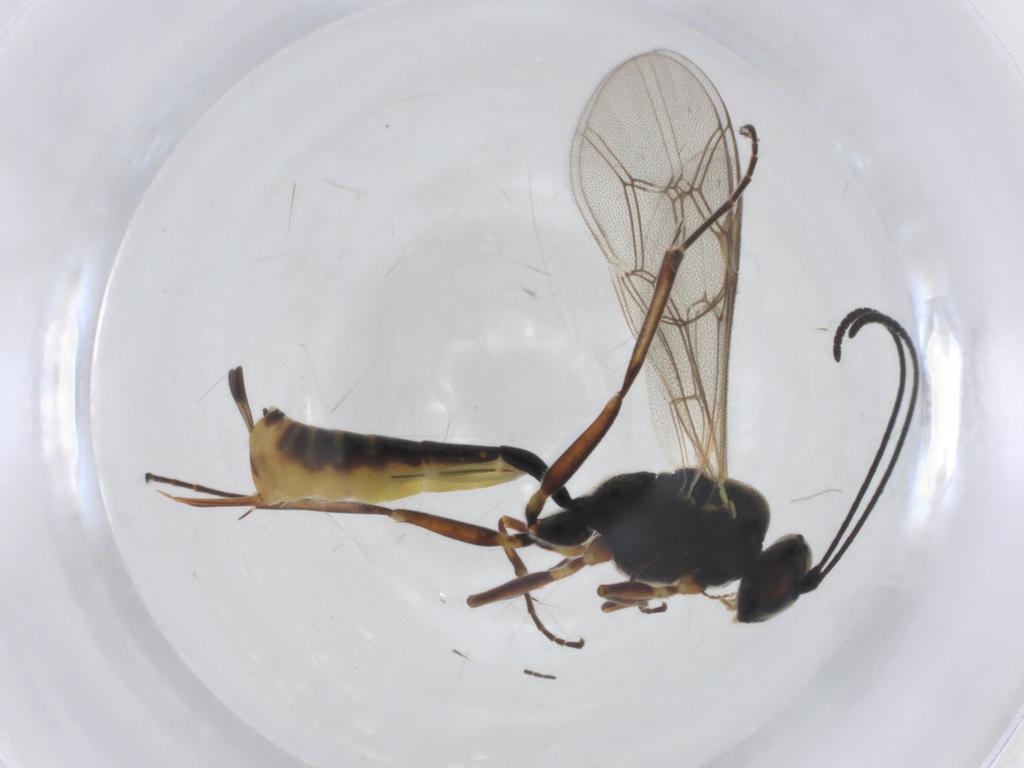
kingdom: Animalia
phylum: Arthropoda
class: Insecta
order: Hymenoptera
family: Ichneumonidae
